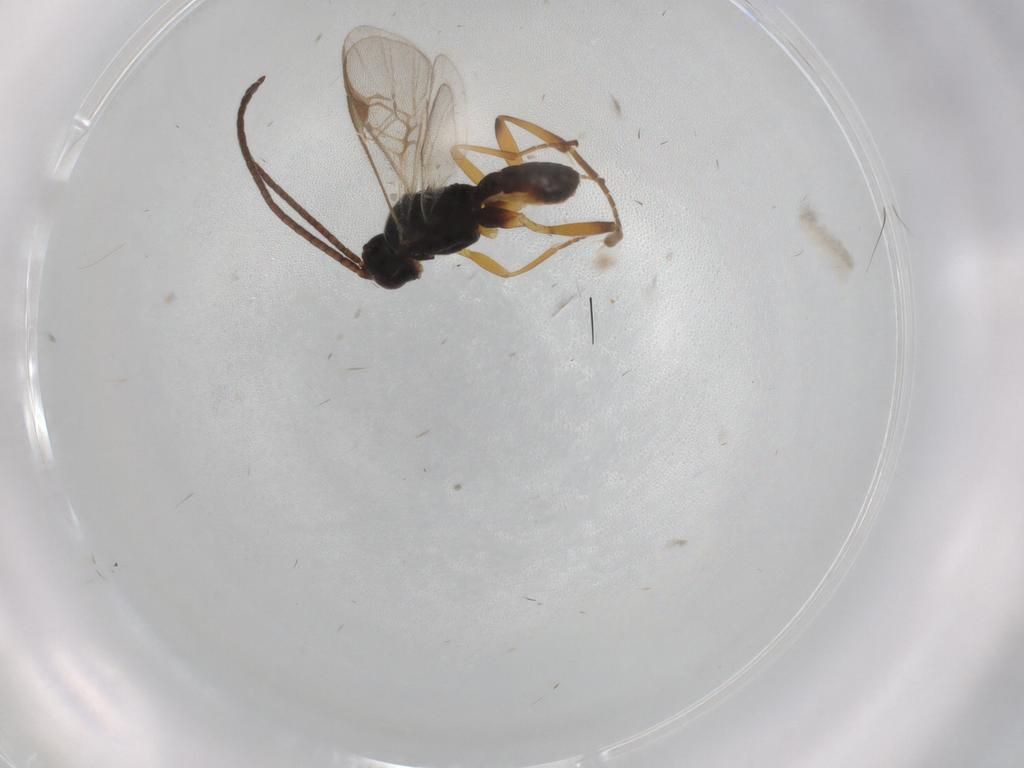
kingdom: Animalia
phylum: Arthropoda
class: Insecta
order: Hymenoptera
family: Braconidae
